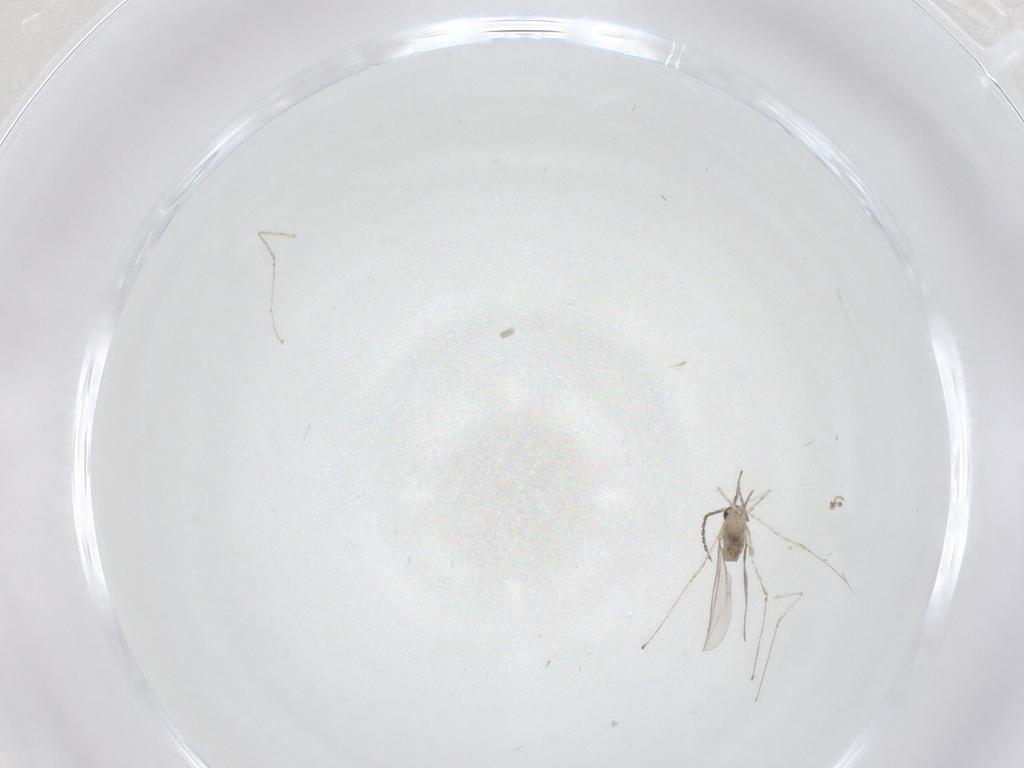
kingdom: Animalia
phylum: Arthropoda
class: Insecta
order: Diptera
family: Cecidomyiidae
